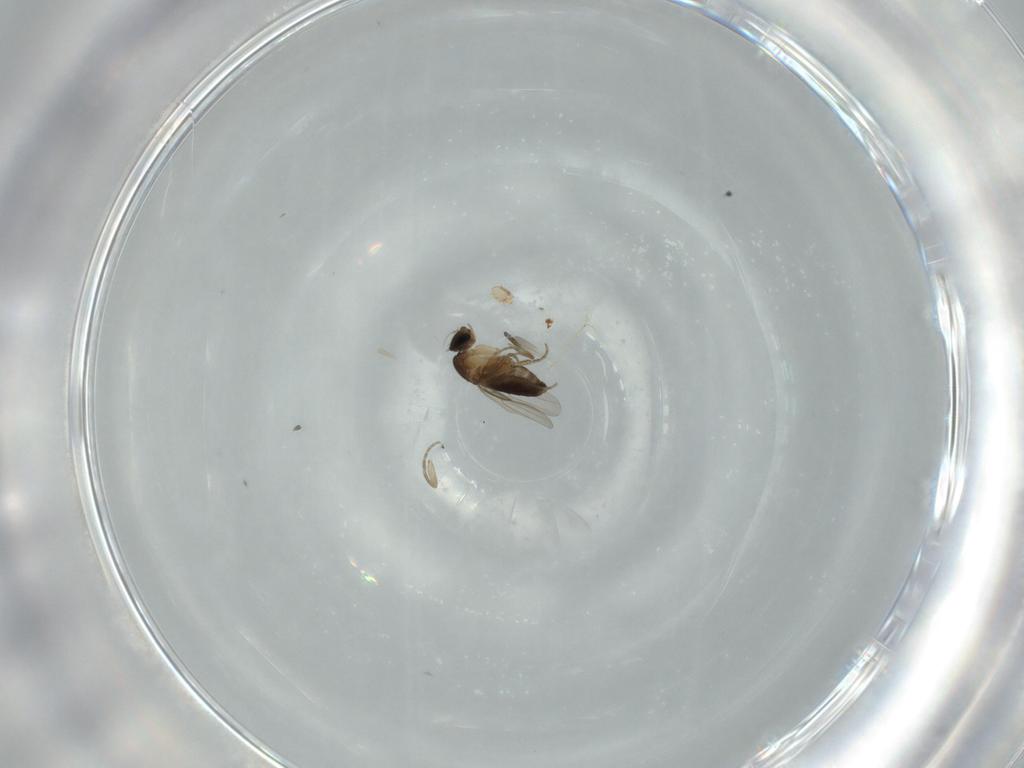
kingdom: Animalia
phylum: Arthropoda
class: Insecta
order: Diptera
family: Phoridae
